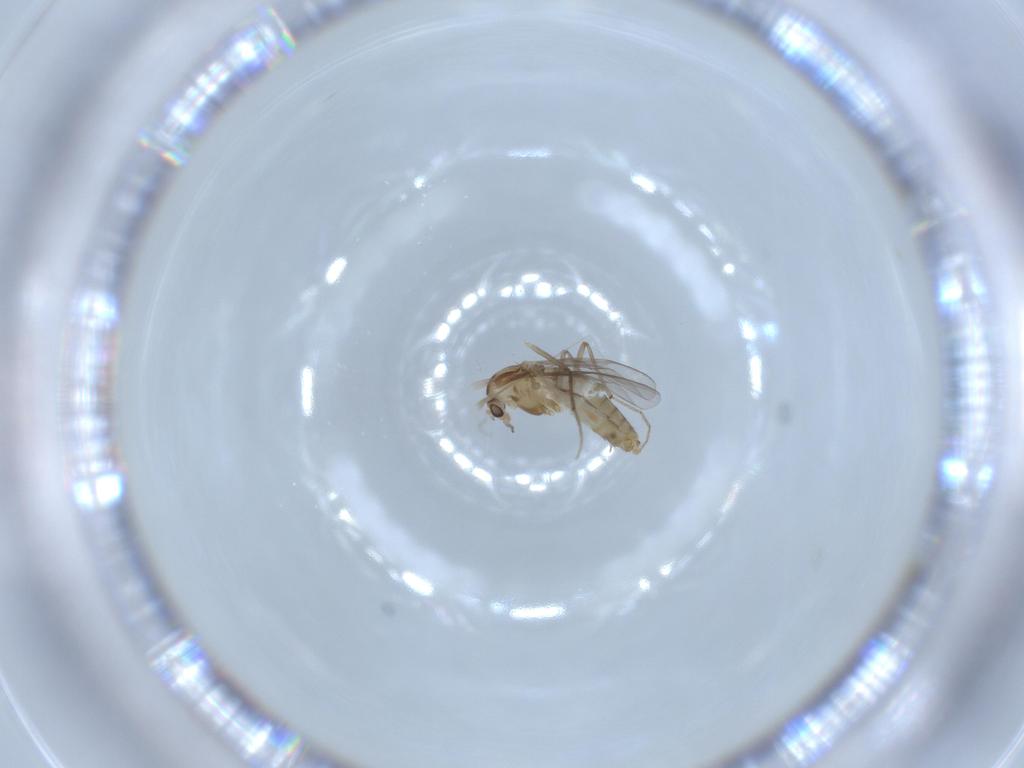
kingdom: Animalia
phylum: Arthropoda
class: Insecta
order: Diptera
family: Chironomidae
